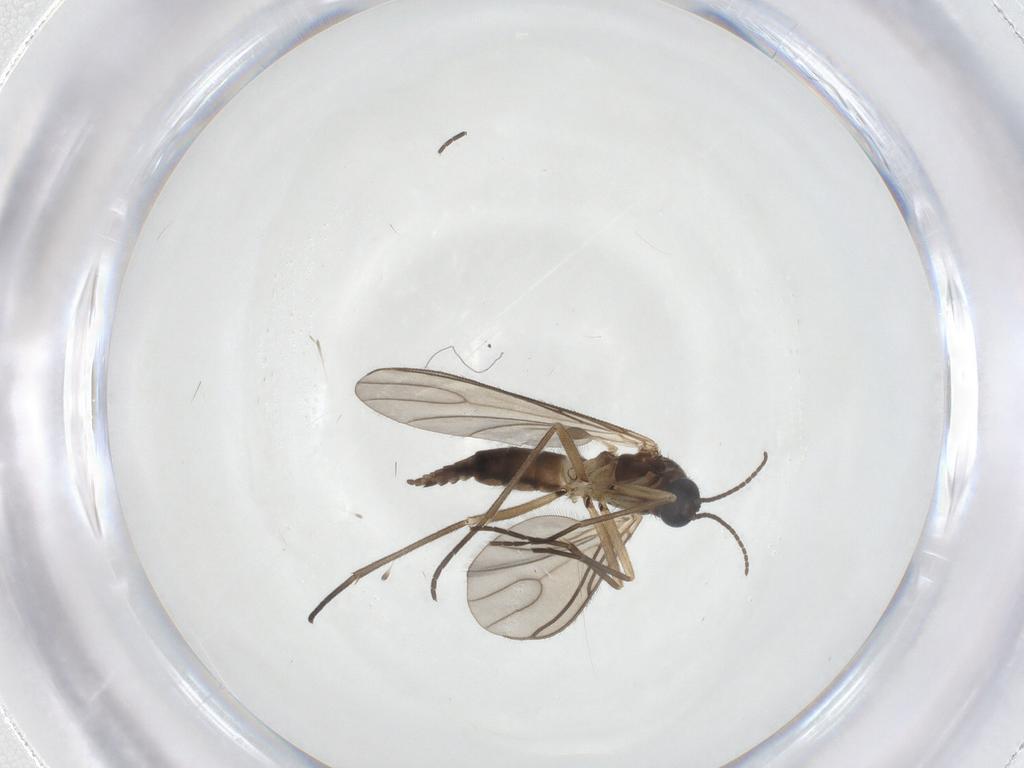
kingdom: Animalia
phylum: Arthropoda
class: Insecta
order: Diptera
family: Sciaridae
